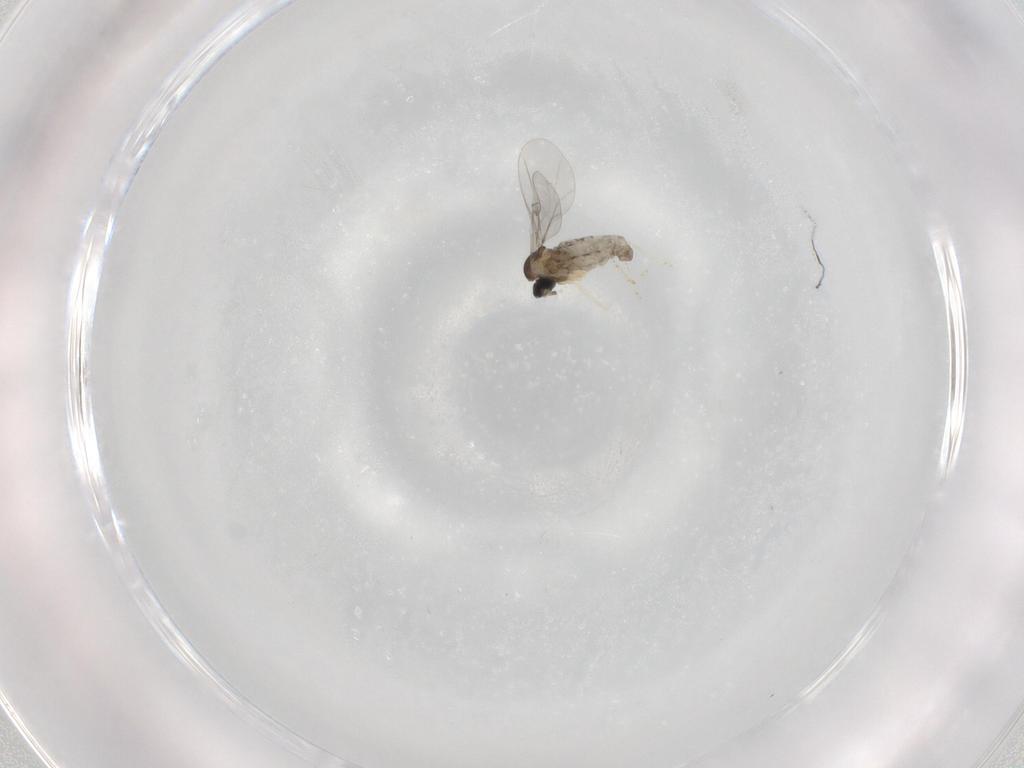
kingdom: Animalia
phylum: Arthropoda
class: Insecta
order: Diptera
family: Cecidomyiidae
